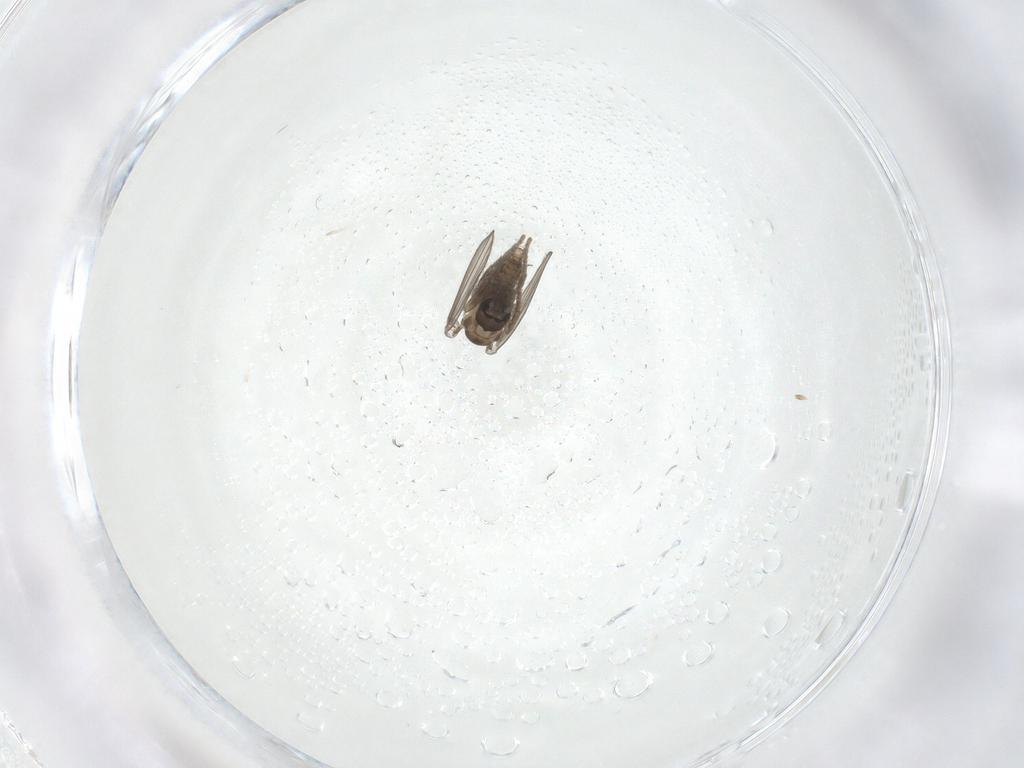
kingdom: Animalia
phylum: Arthropoda
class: Insecta
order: Diptera
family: Psychodidae
